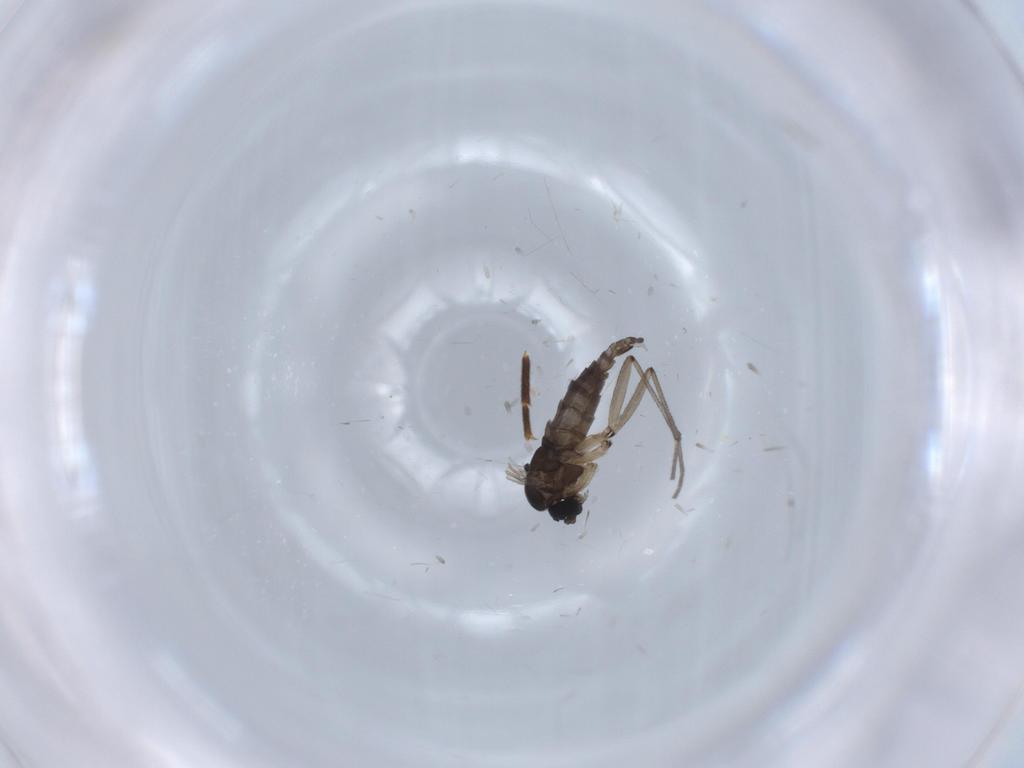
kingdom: Animalia
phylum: Arthropoda
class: Insecta
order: Diptera
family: Sciaridae
